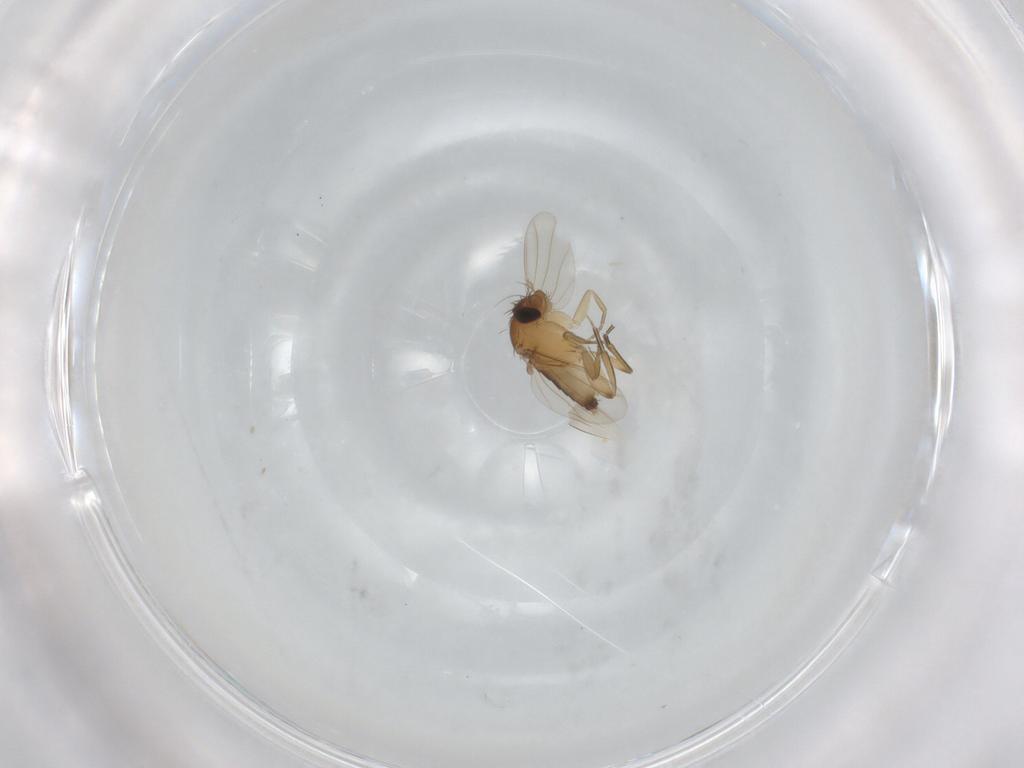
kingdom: Animalia
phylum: Arthropoda
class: Insecta
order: Diptera
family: Phoridae
